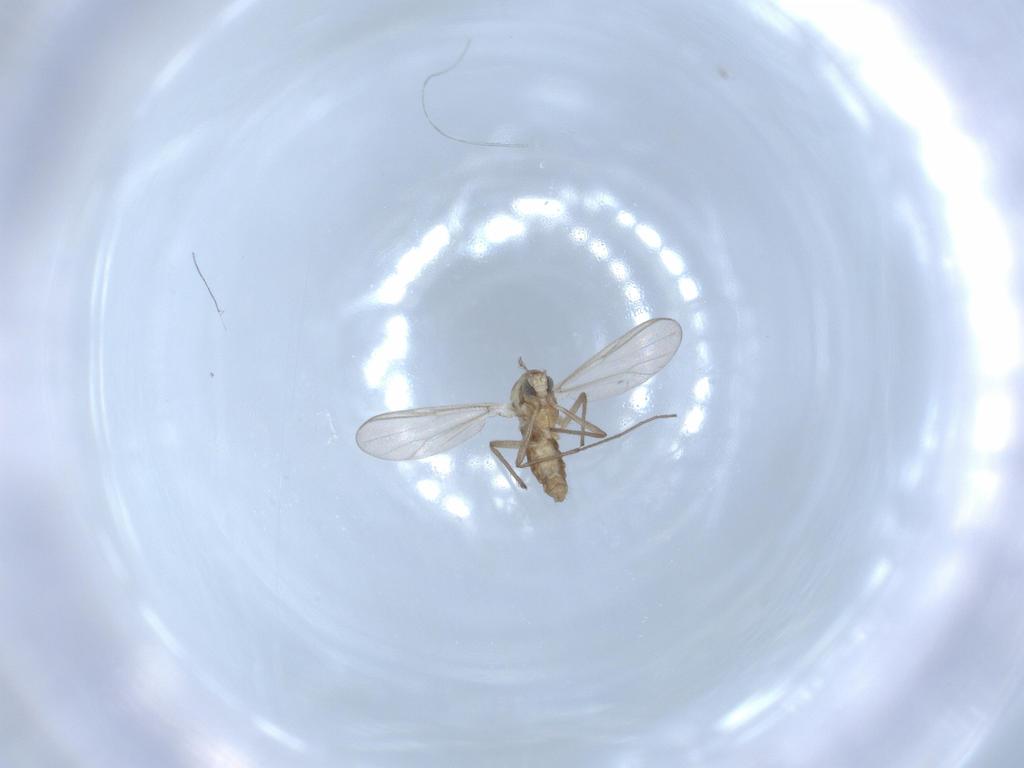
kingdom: Animalia
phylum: Arthropoda
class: Insecta
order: Diptera
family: Chironomidae
